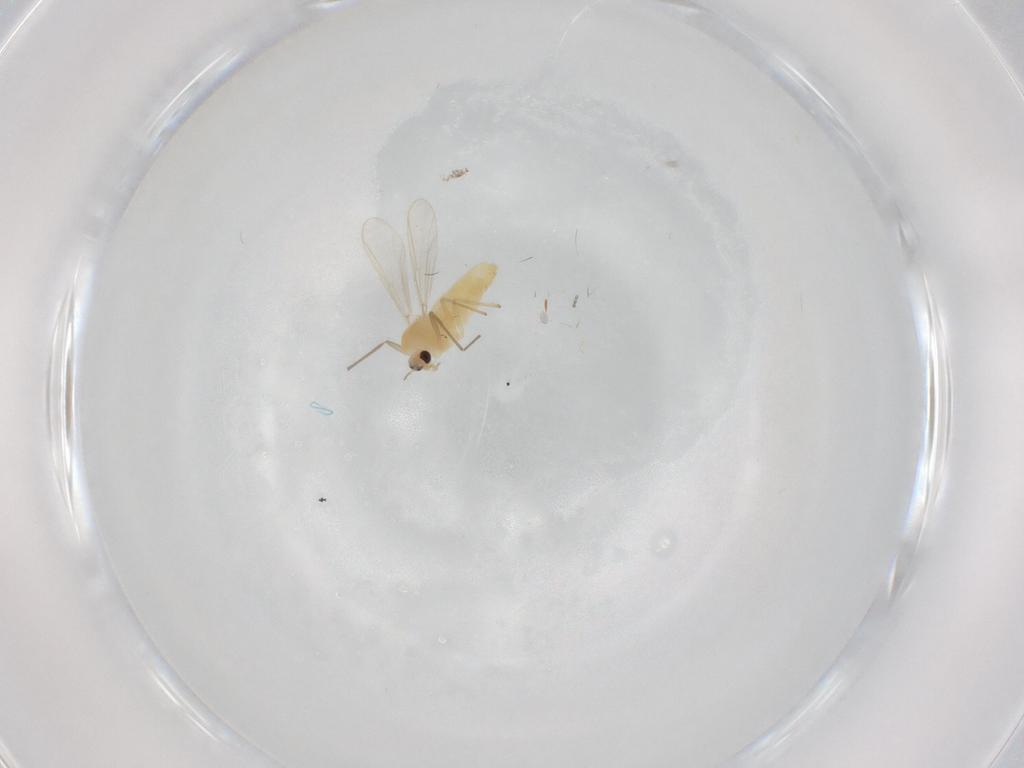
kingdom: Animalia
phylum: Arthropoda
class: Insecta
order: Diptera
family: Chironomidae
